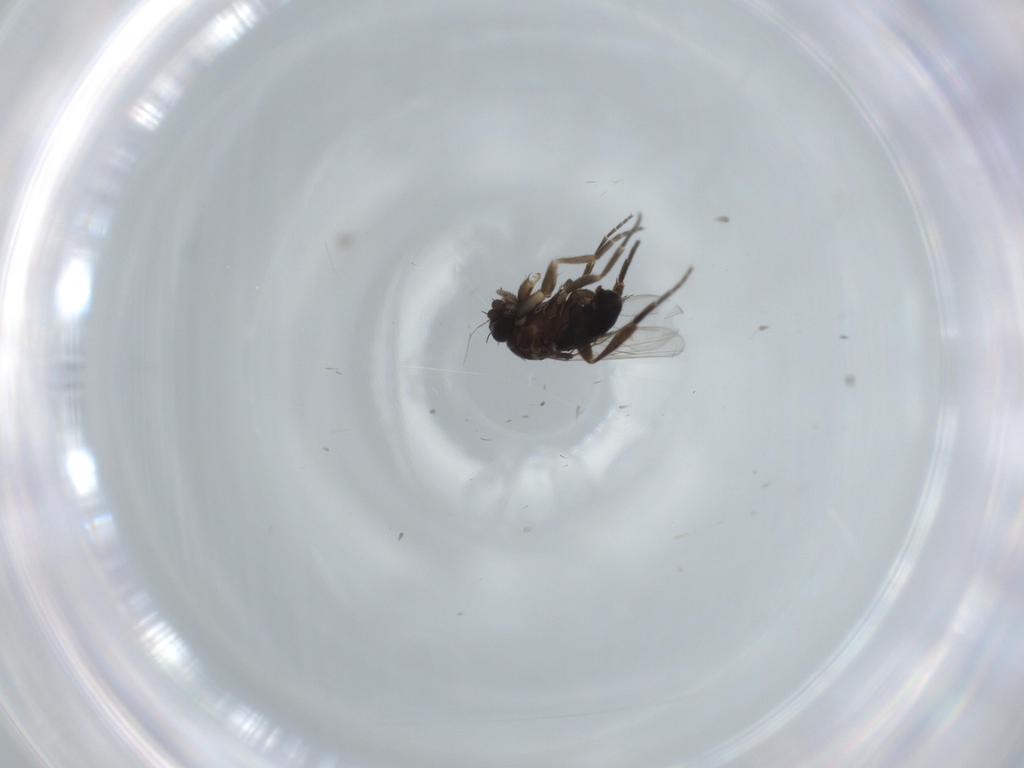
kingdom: Animalia
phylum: Arthropoda
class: Insecta
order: Diptera
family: Phoridae
